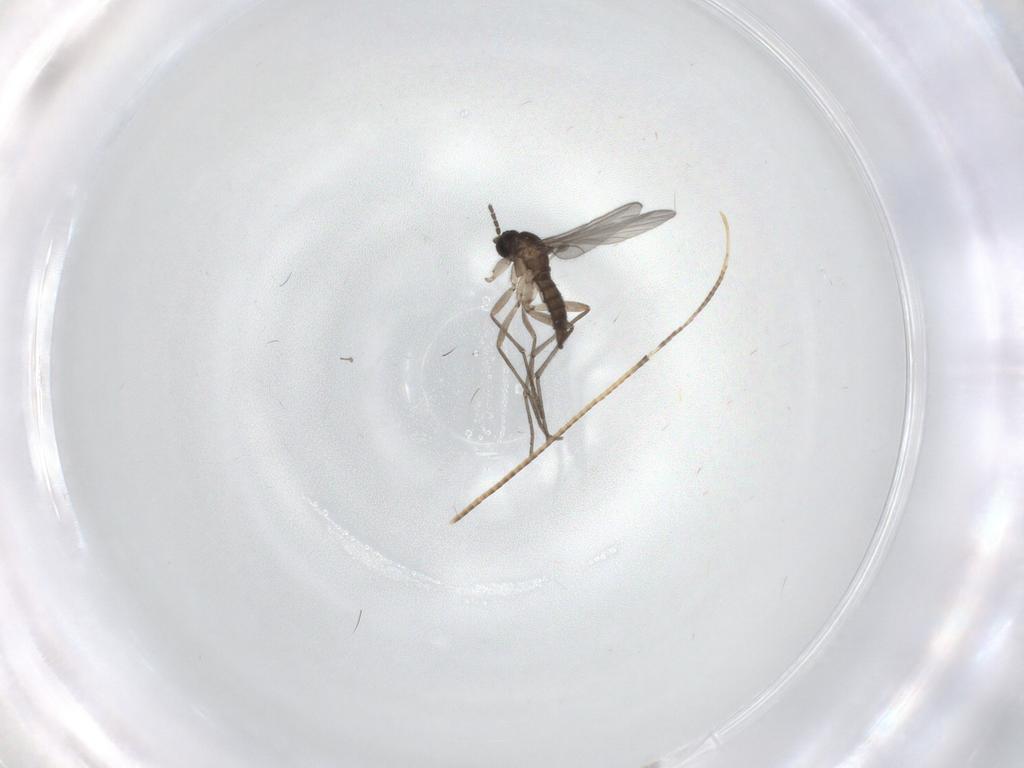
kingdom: Animalia
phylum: Arthropoda
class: Insecta
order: Diptera
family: Sciaridae
